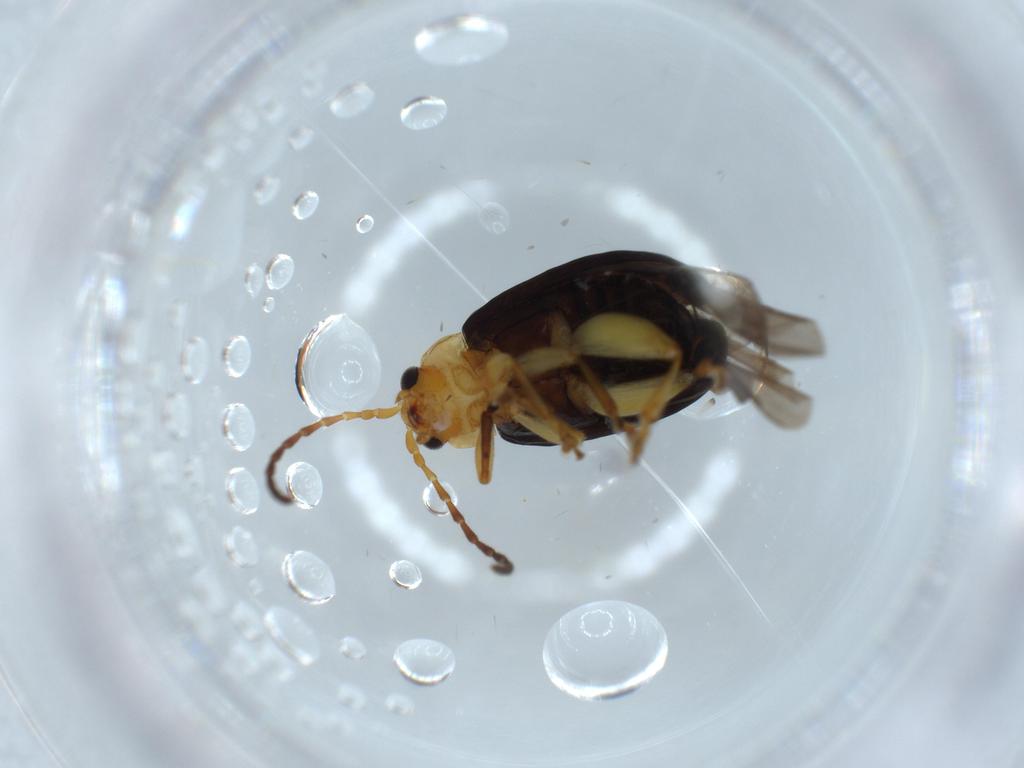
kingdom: Animalia
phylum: Arthropoda
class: Insecta
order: Coleoptera
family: Chrysomelidae
